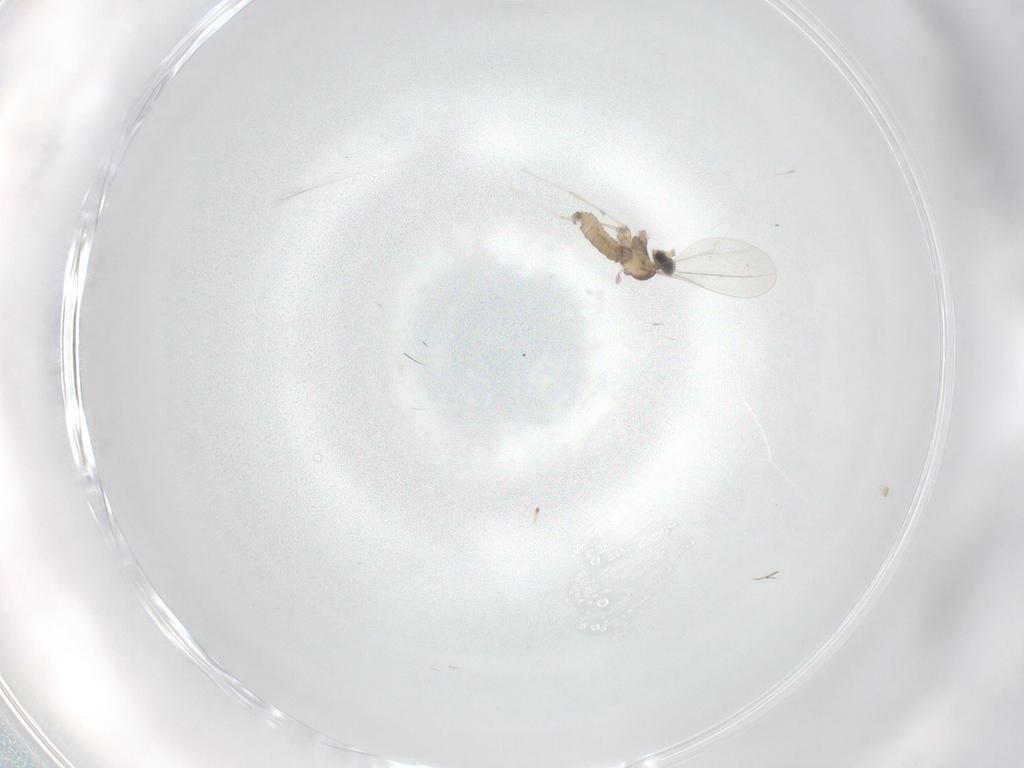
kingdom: Animalia
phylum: Arthropoda
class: Insecta
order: Diptera
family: Cecidomyiidae
